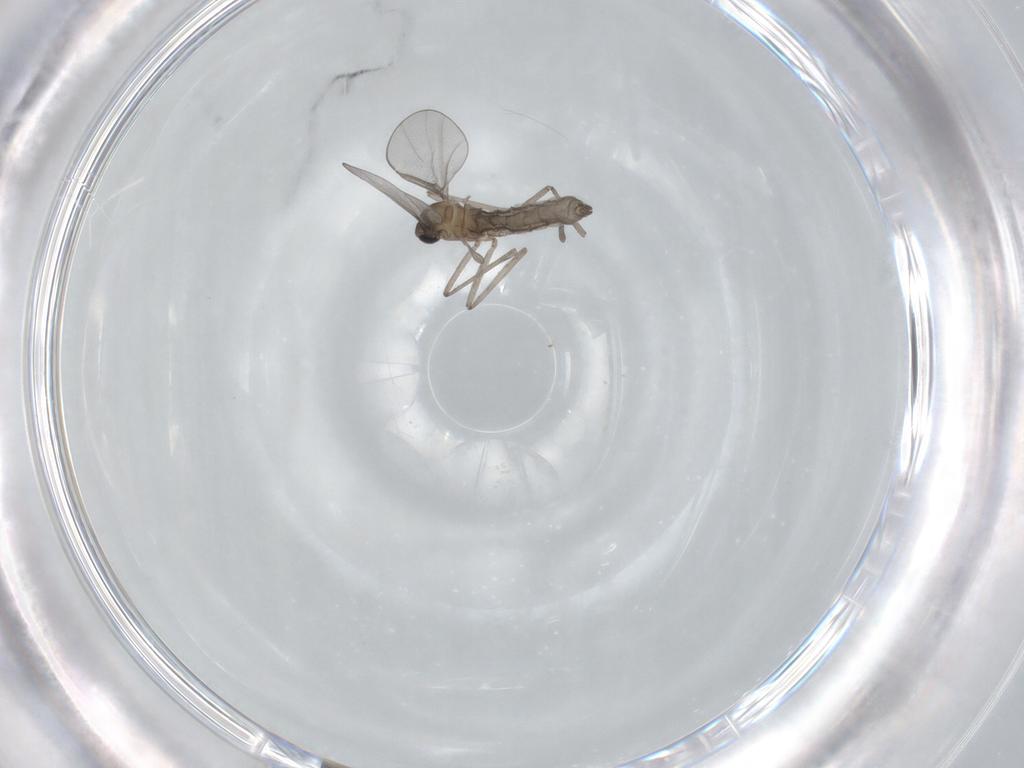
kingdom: Animalia
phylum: Arthropoda
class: Insecta
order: Diptera
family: Cecidomyiidae
